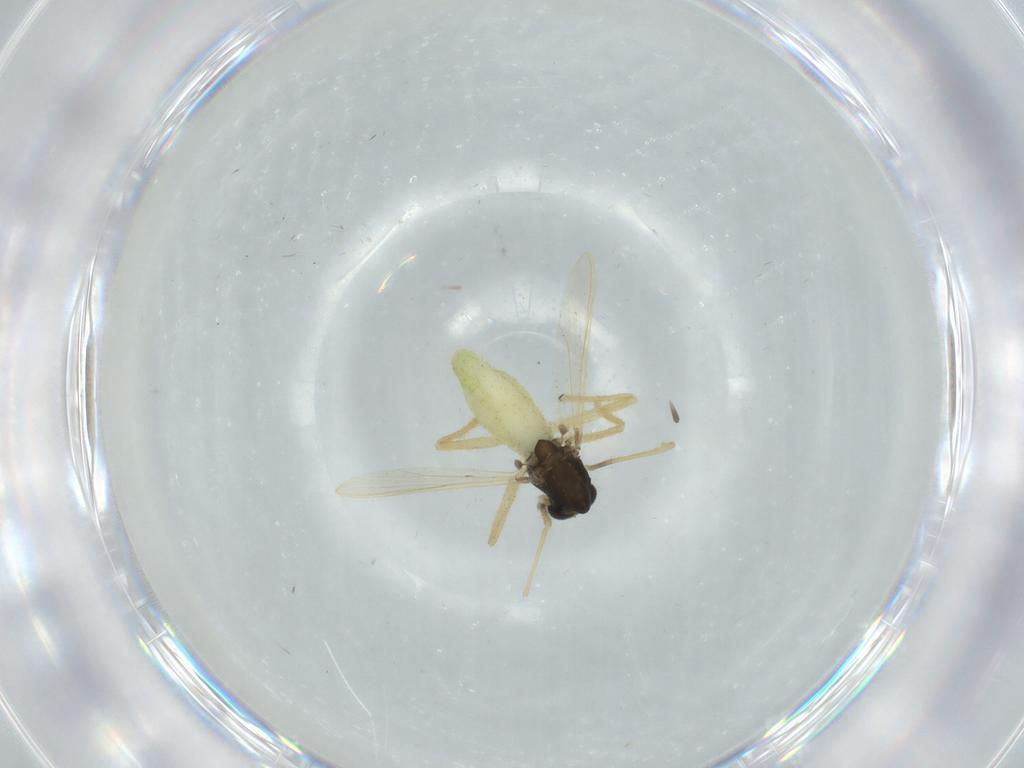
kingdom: Animalia
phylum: Arthropoda
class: Insecta
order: Diptera
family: Chironomidae
